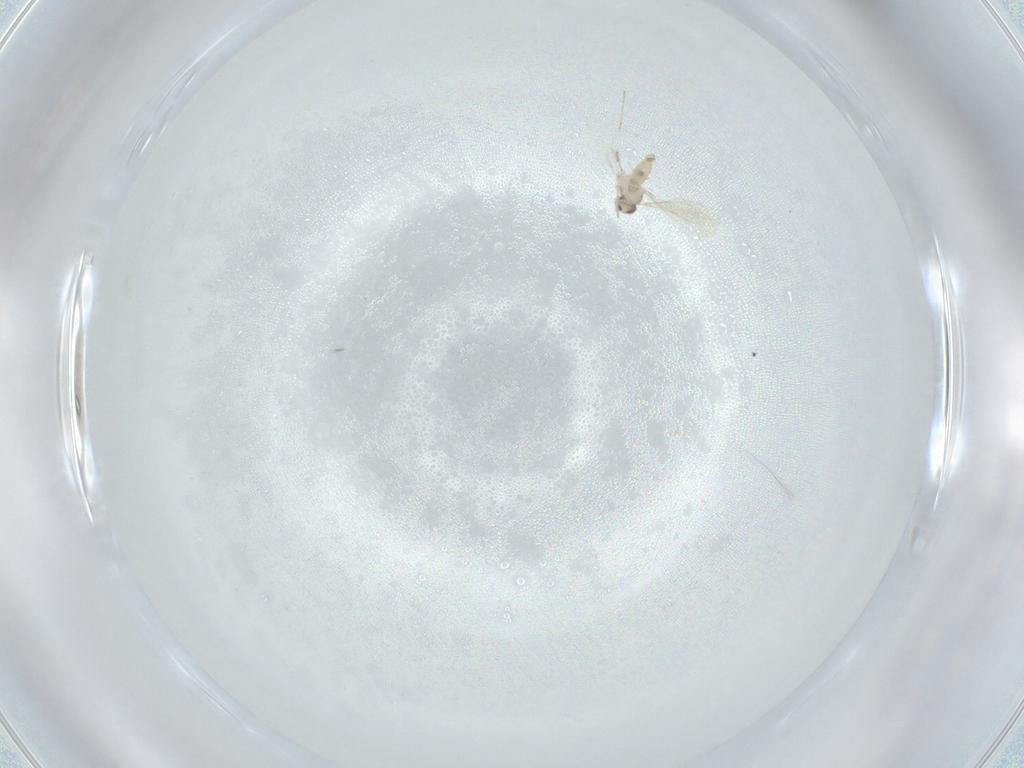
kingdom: Animalia
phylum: Arthropoda
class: Insecta
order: Diptera
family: Cecidomyiidae
